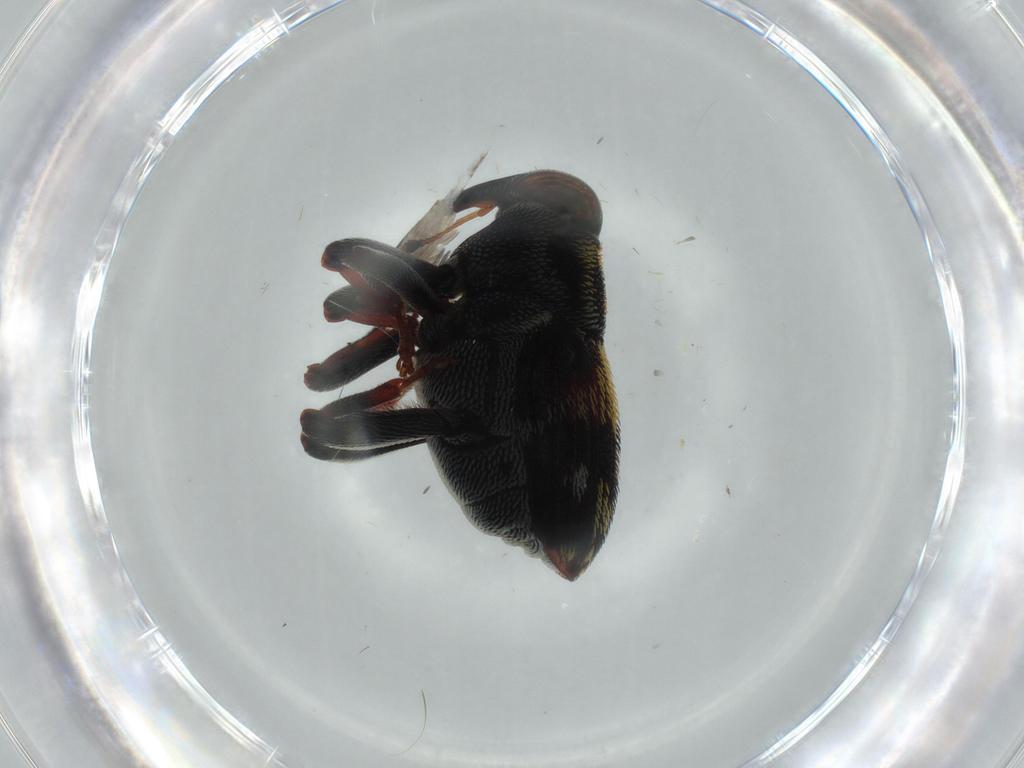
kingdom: Animalia
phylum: Arthropoda
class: Insecta
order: Coleoptera
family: Curculionidae
